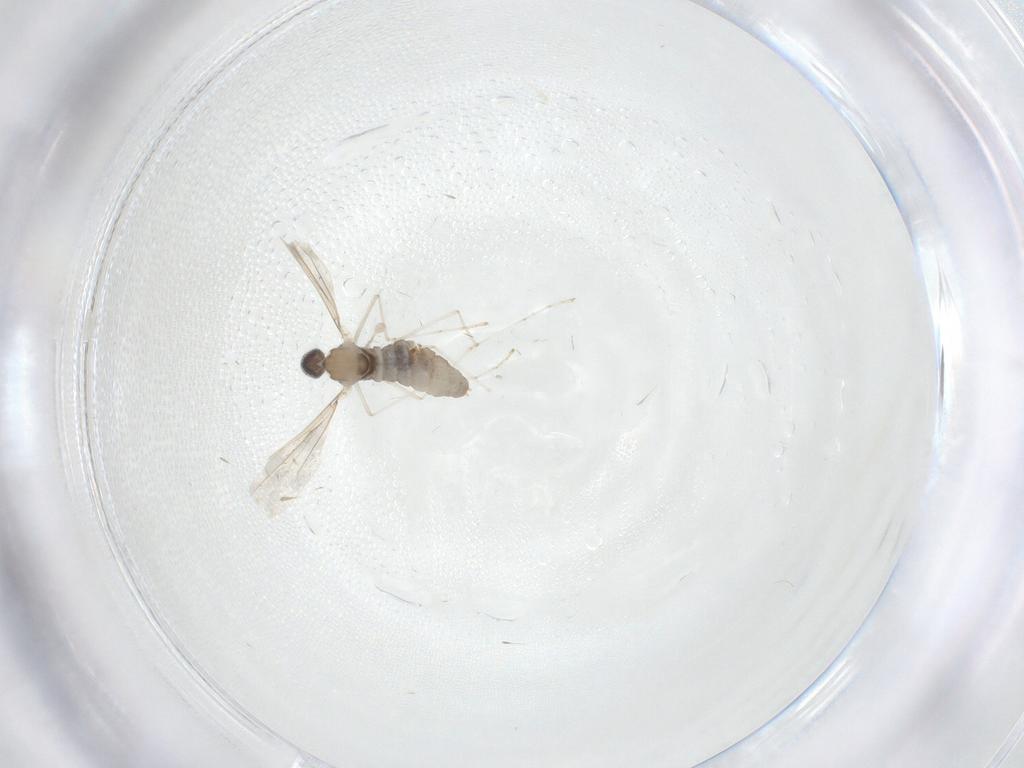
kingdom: Animalia
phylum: Arthropoda
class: Insecta
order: Diptera
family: Cecidomyiidae
